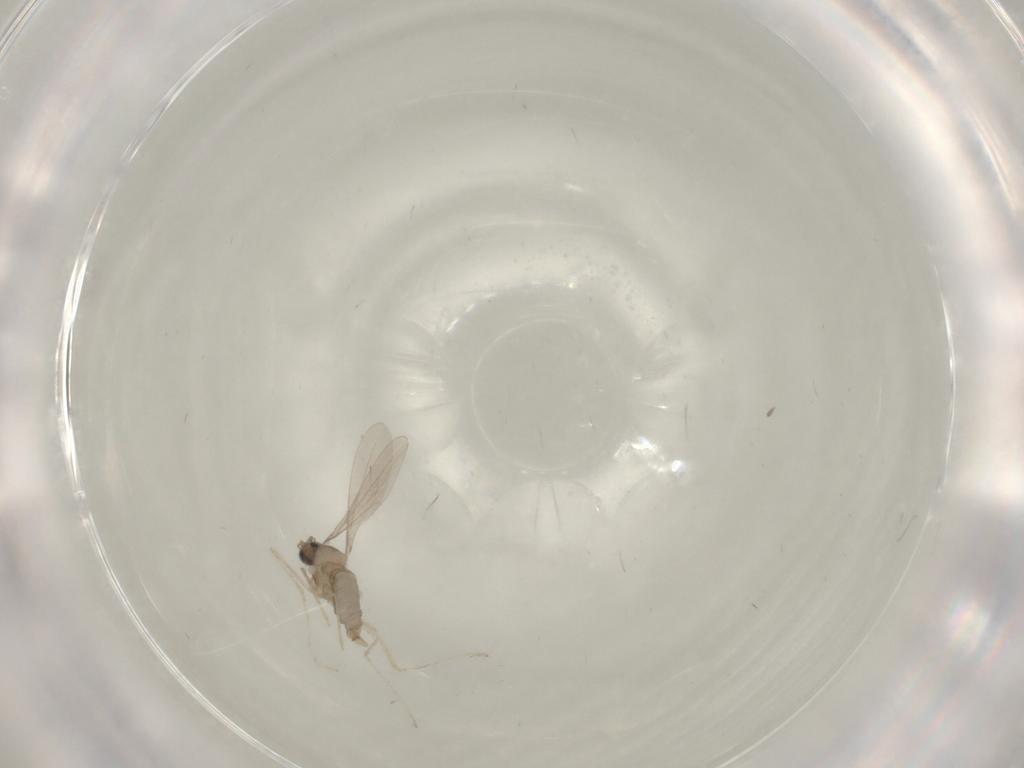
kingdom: Animalia
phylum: Arthropoda
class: Insecta
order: Diptera
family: Cecidomyiidae
